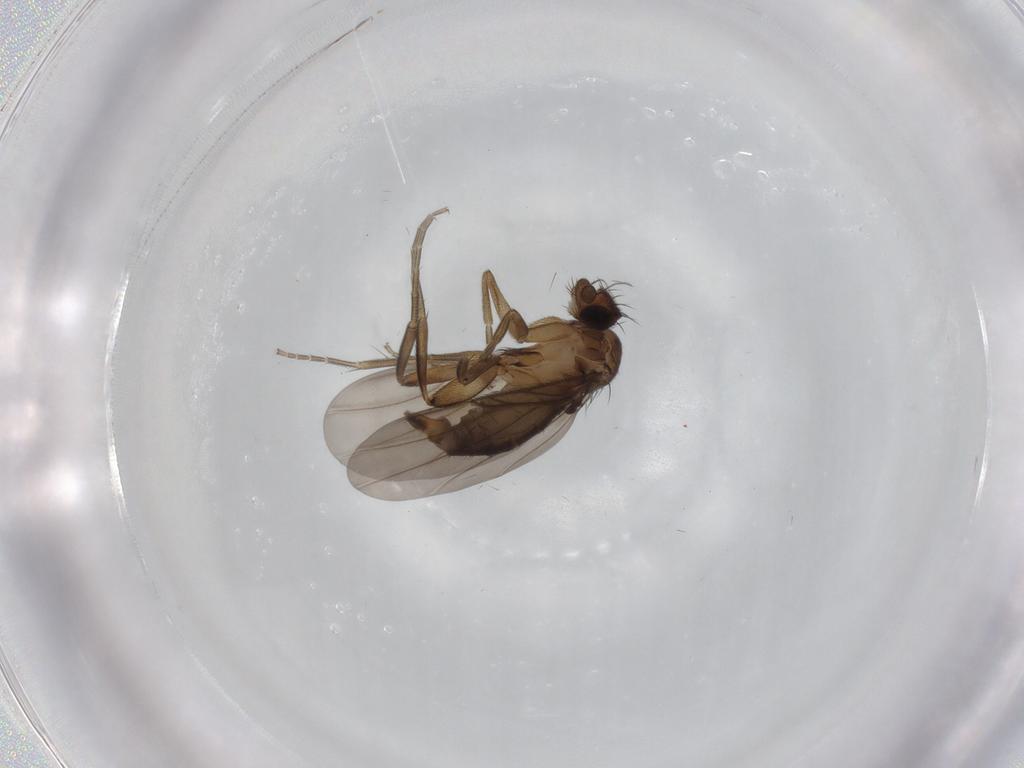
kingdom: Animalia
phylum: Arthropoda
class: Insecta
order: Diptera
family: Phoridae
